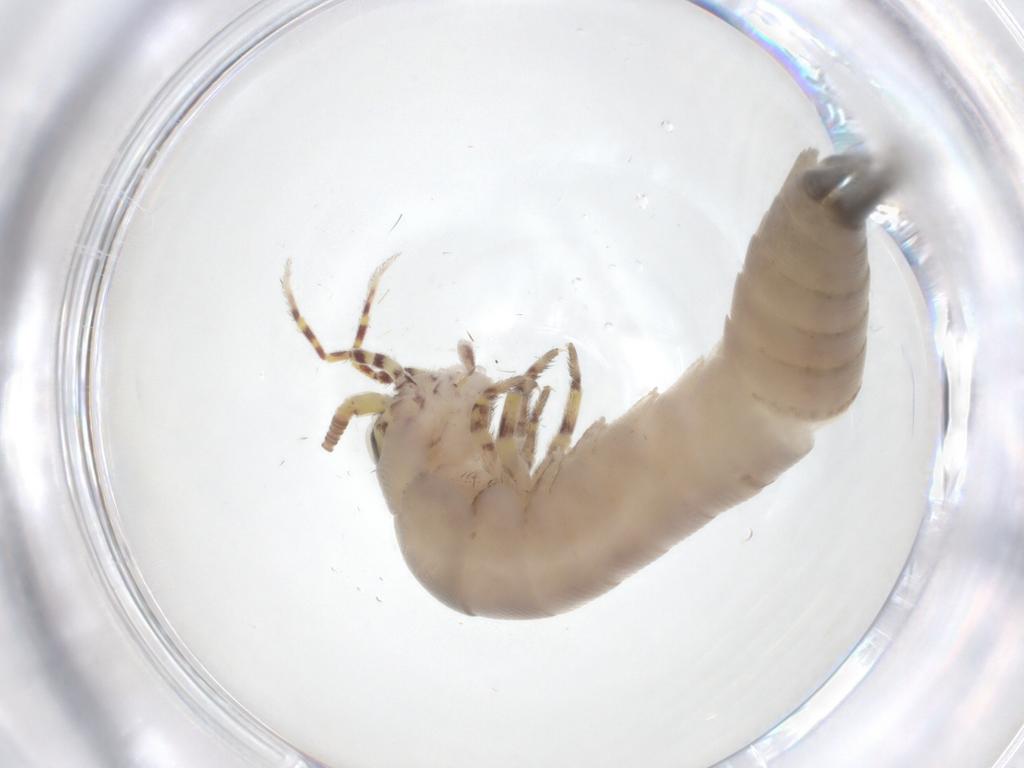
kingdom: Animalia
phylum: Arthropoda
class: Insecta
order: Archaeognatha
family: Meinertellidae
